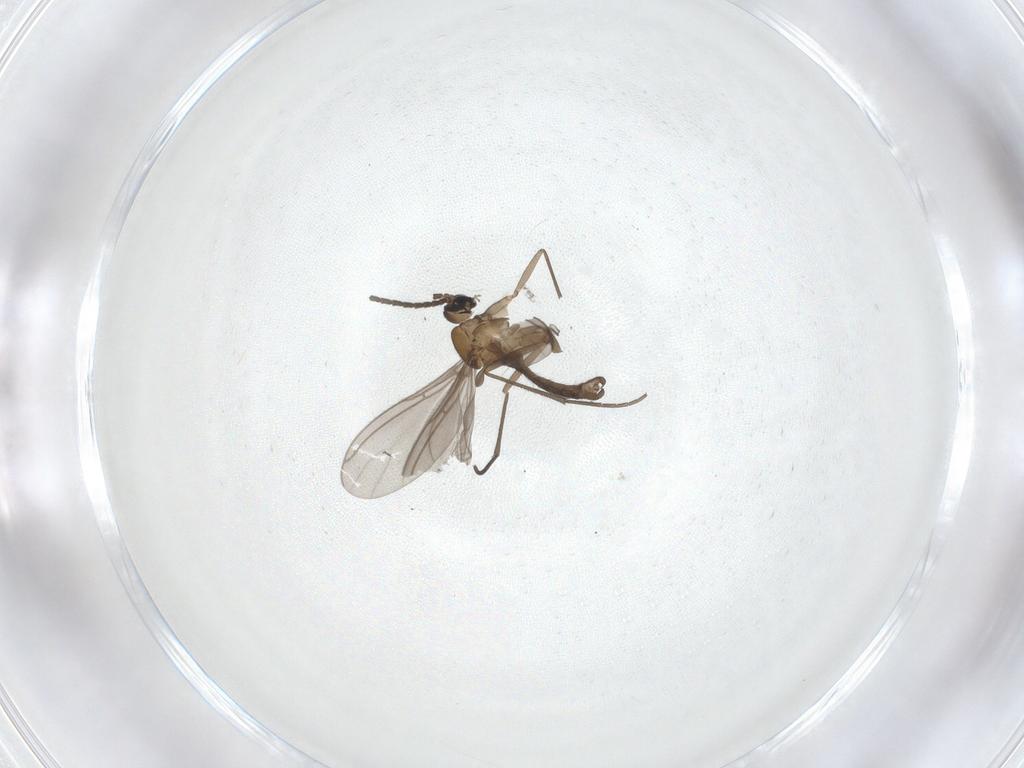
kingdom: Animalia
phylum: Arthropoda
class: Insecta
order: Diptera
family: Sciaridae
